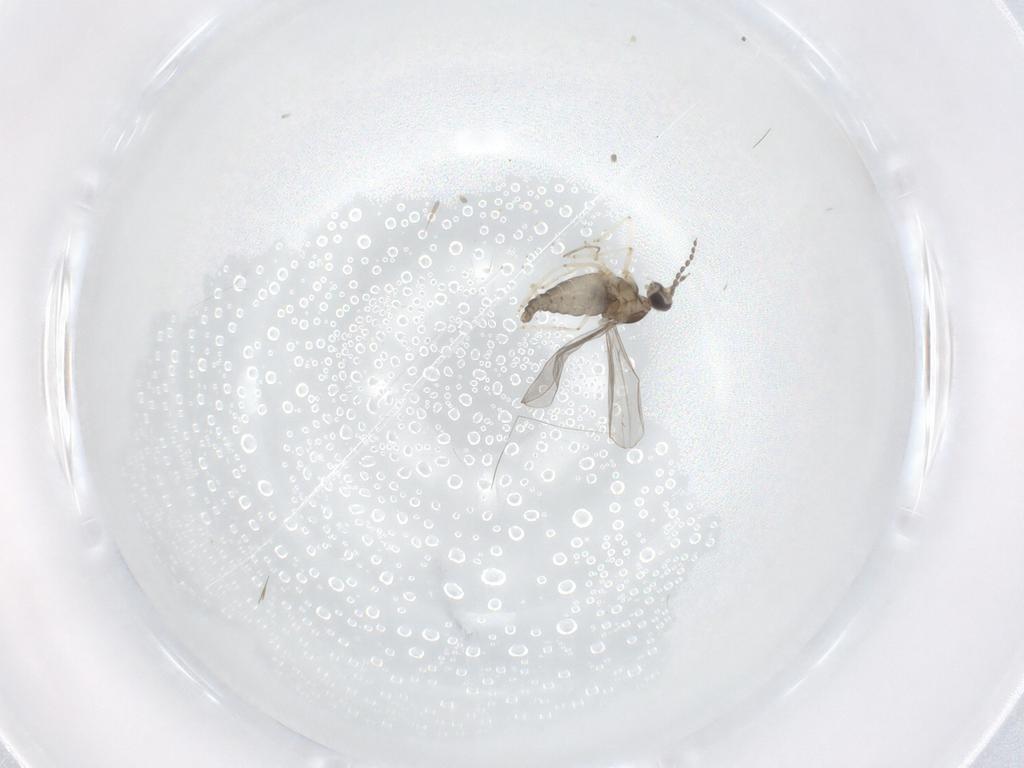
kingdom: Animalia
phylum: Arthropoda
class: Insecta
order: Diptera
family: Cecidomyiidae
